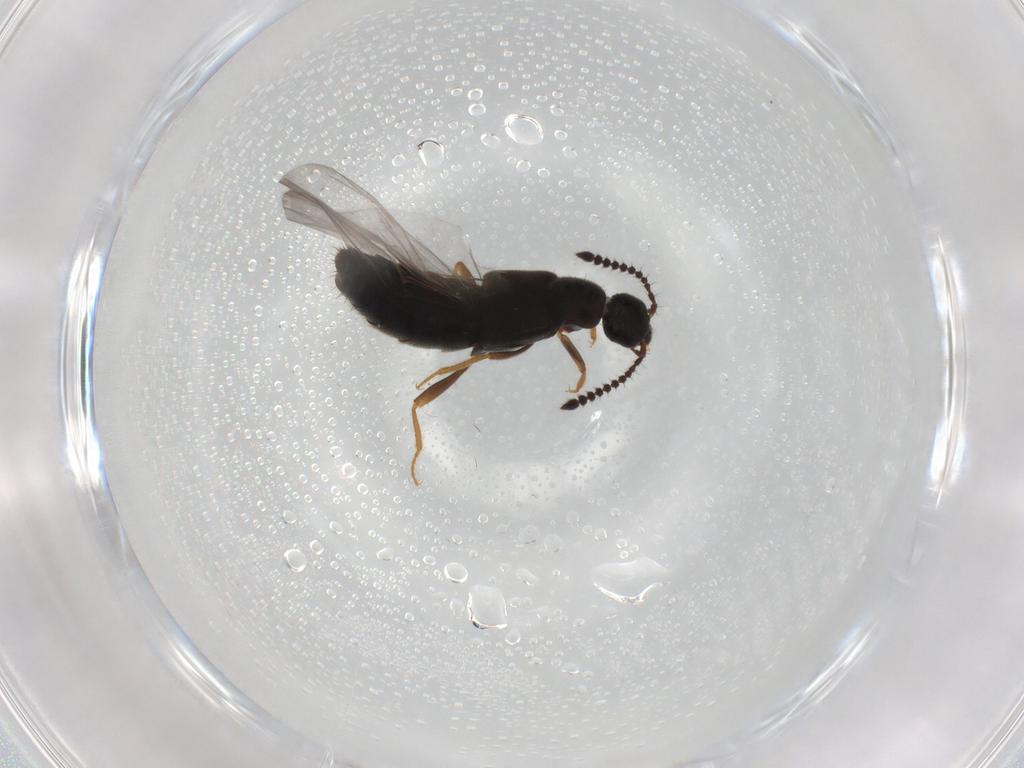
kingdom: Animalia
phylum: Arthropoda
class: Insecta
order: Coleoptera
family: Staphylinidae
